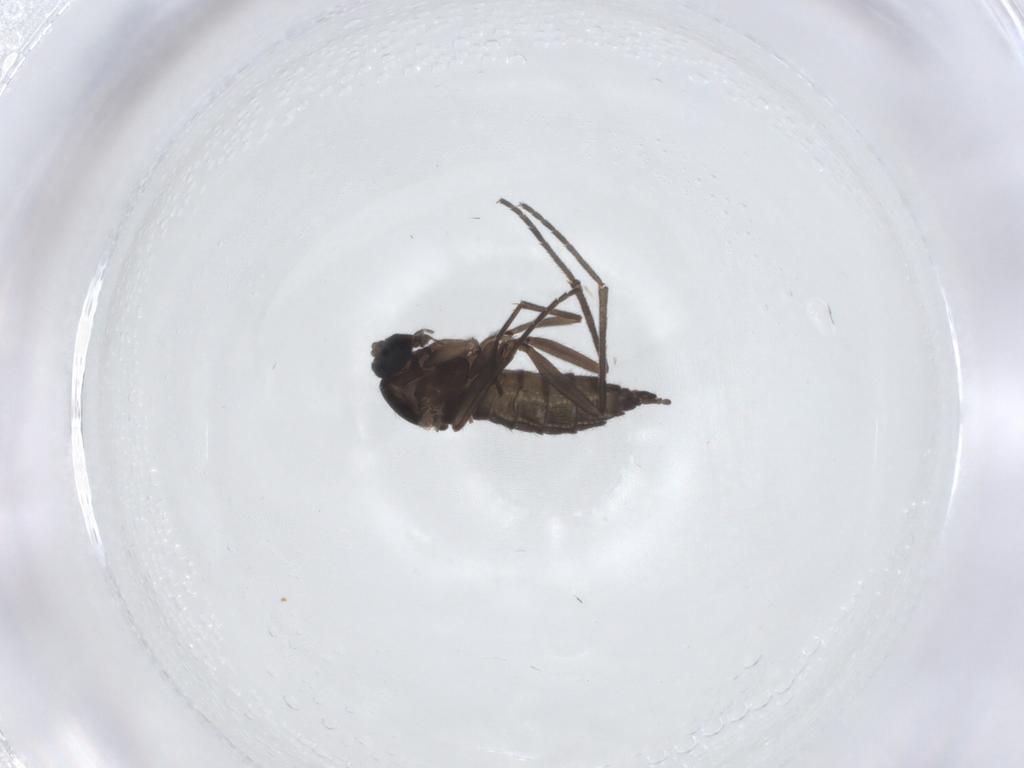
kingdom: Animalia
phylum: Arthropoda
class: Insecta
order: Diptera
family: Sciaridae
